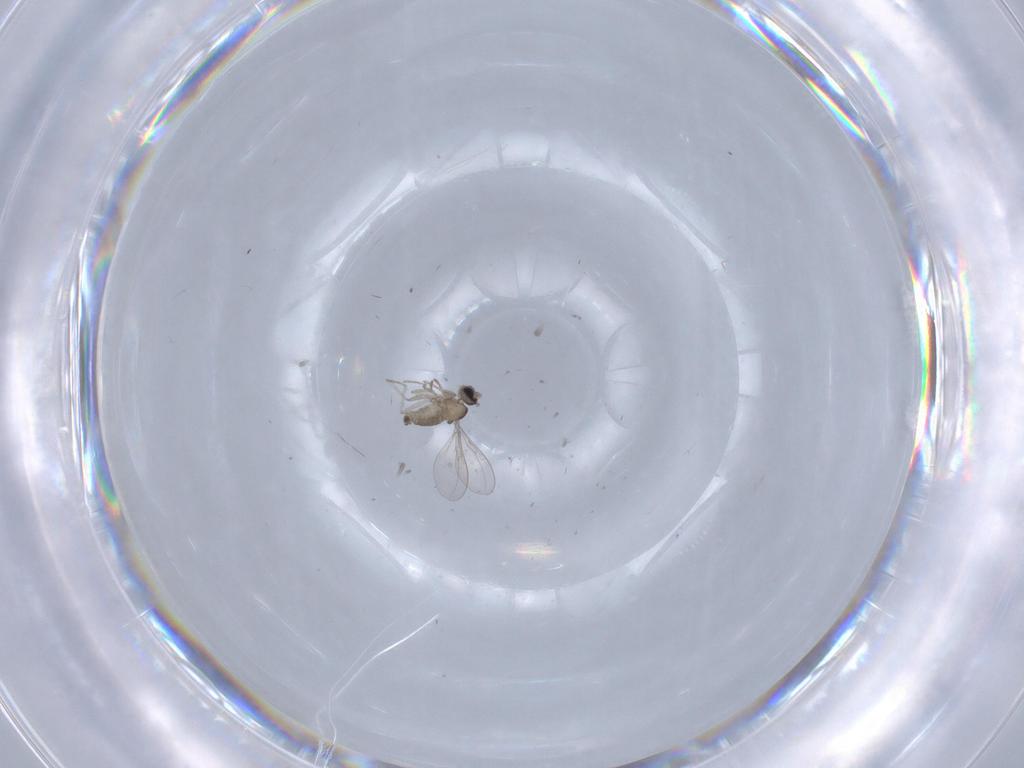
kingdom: Animalia
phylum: Arthropoda
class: Insecta
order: Diptera
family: Cecidomyiidae
